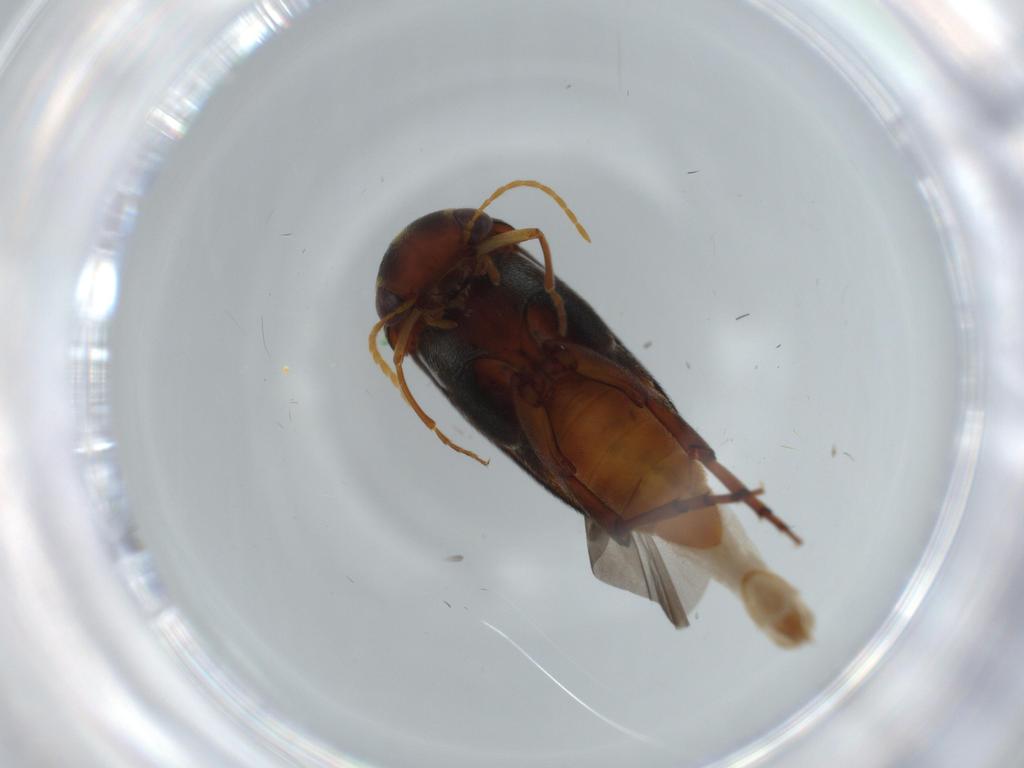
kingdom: Animalia
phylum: Arthropoda
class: Insecta
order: Coleoptera
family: Mordellidae
